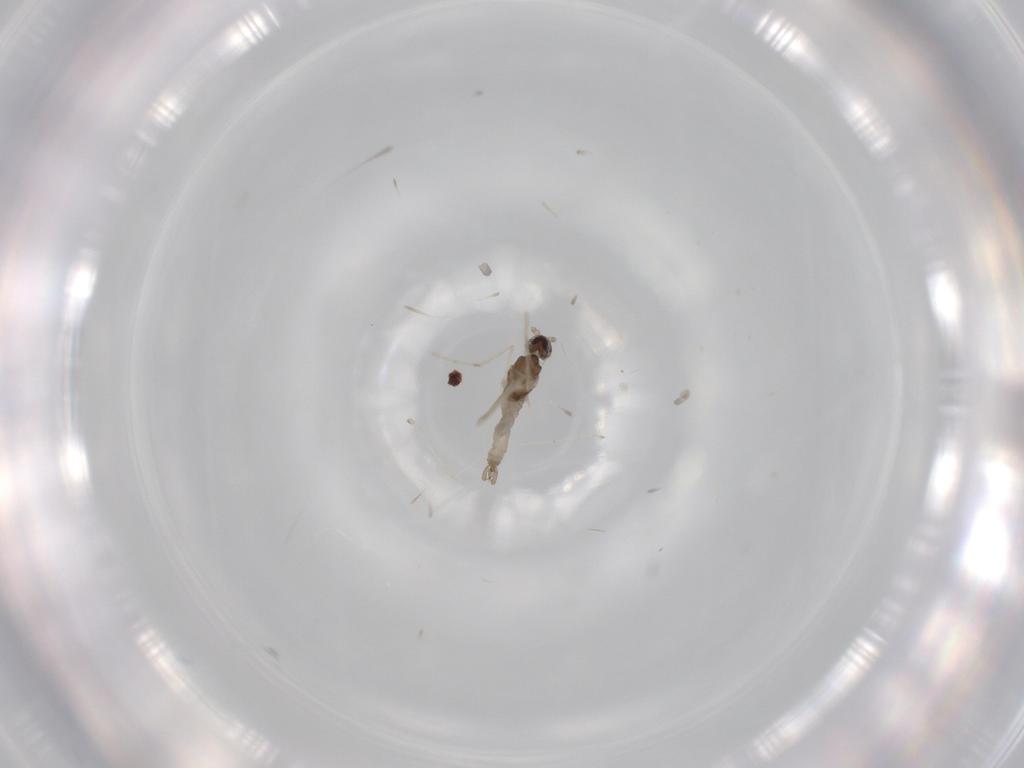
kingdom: Animalia
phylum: Arthropoda
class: Insecta
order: Diptera
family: Cecidomyiidae
